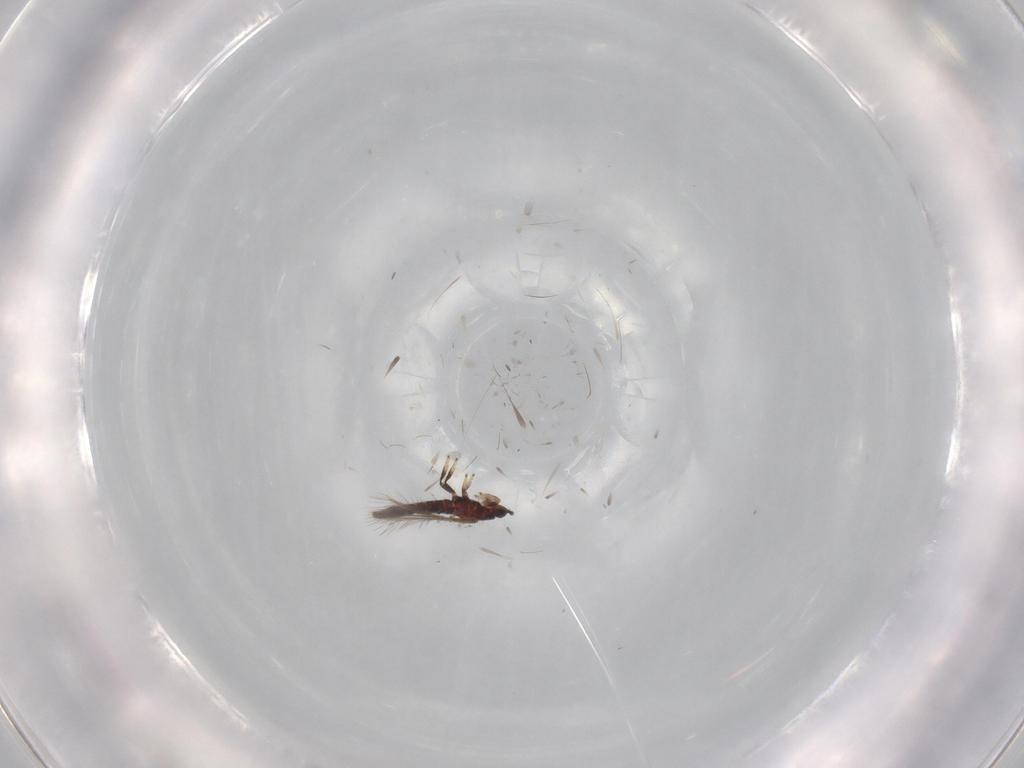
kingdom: Animalia
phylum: Arthropoda
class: Insecta
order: Thysanoptera
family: Thripidae
